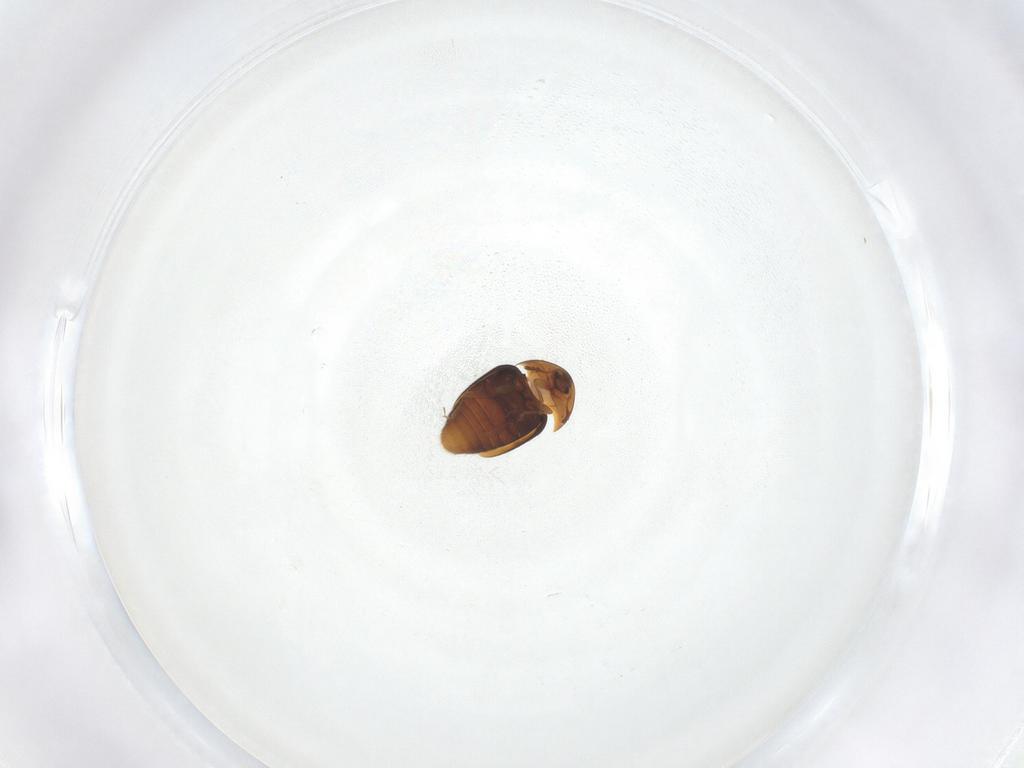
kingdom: Animalia
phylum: Arthropoda
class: Insecta
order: Coleoptera
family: Corylophidae
